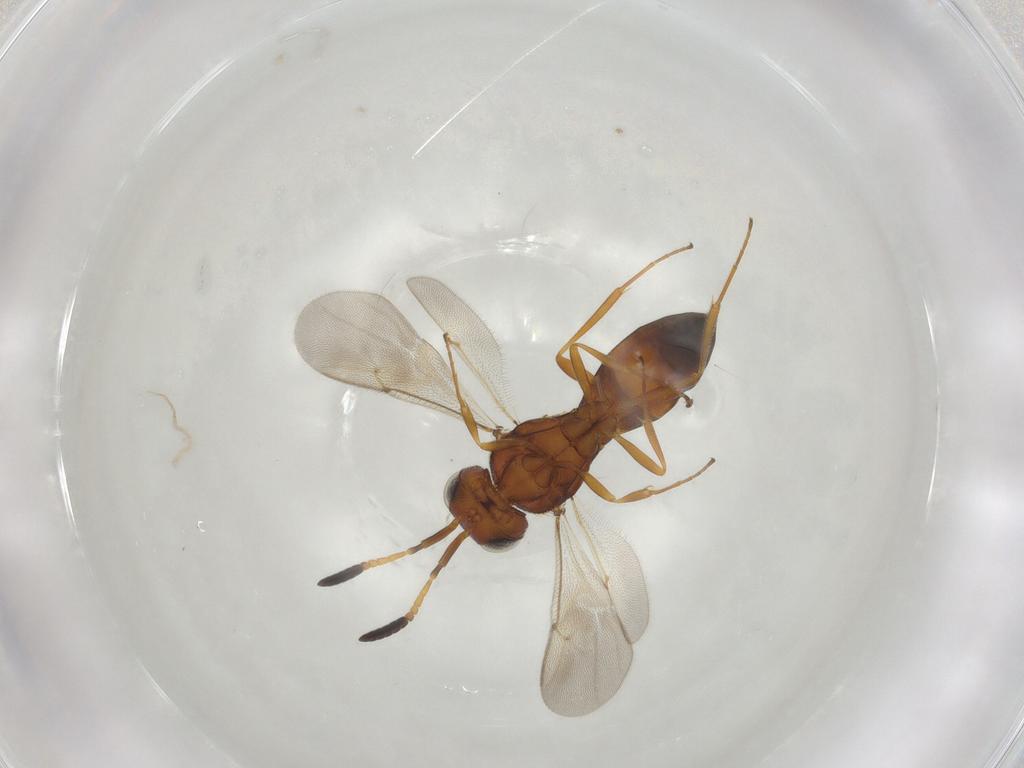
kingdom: Animalia
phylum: Arthropoda
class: Insecta
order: Hymenoptera
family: Scelionidae
